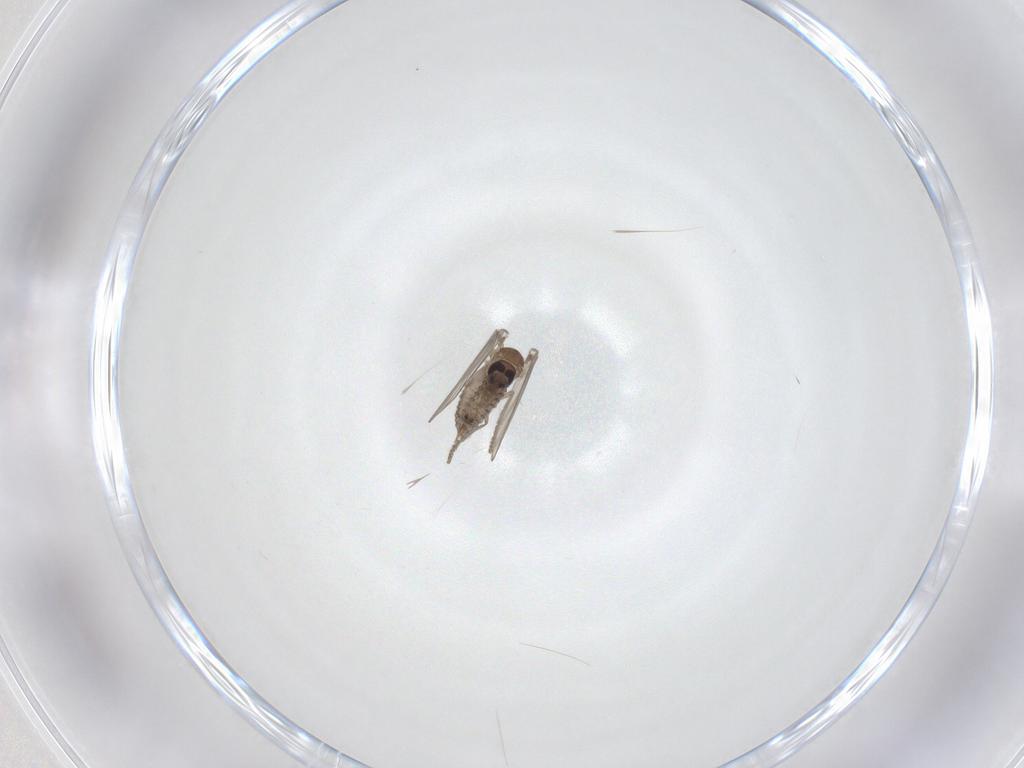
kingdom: Animalia
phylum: Arthropoda
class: Insecta
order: Diptera
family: Psychodidae
